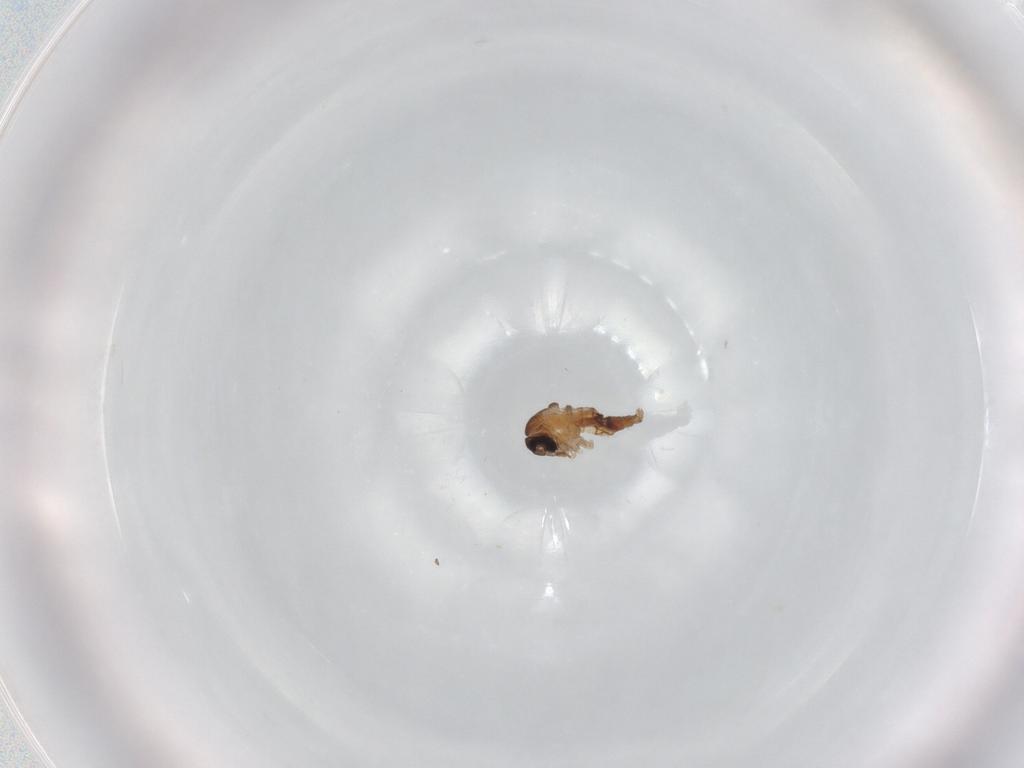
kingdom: Animalia
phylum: Arthropoda
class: Insecta
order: Diptera
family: Psychodidae
